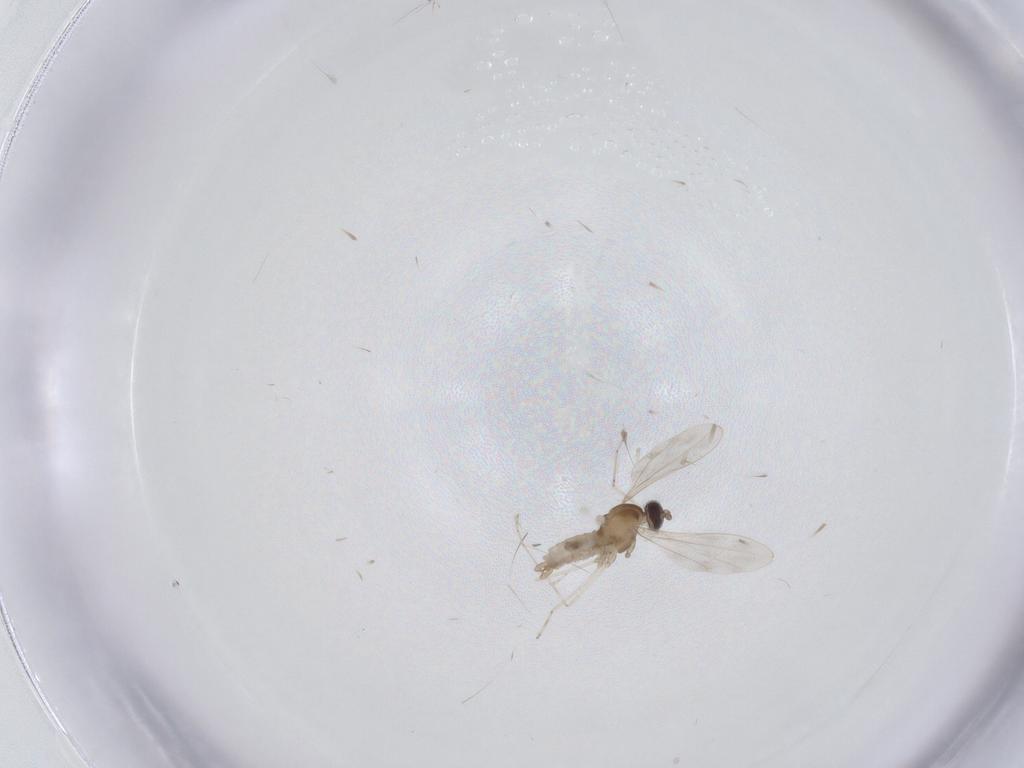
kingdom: Animalia
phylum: Arthropoda
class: Insecta
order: Diptera
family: Cecidomyiidae
